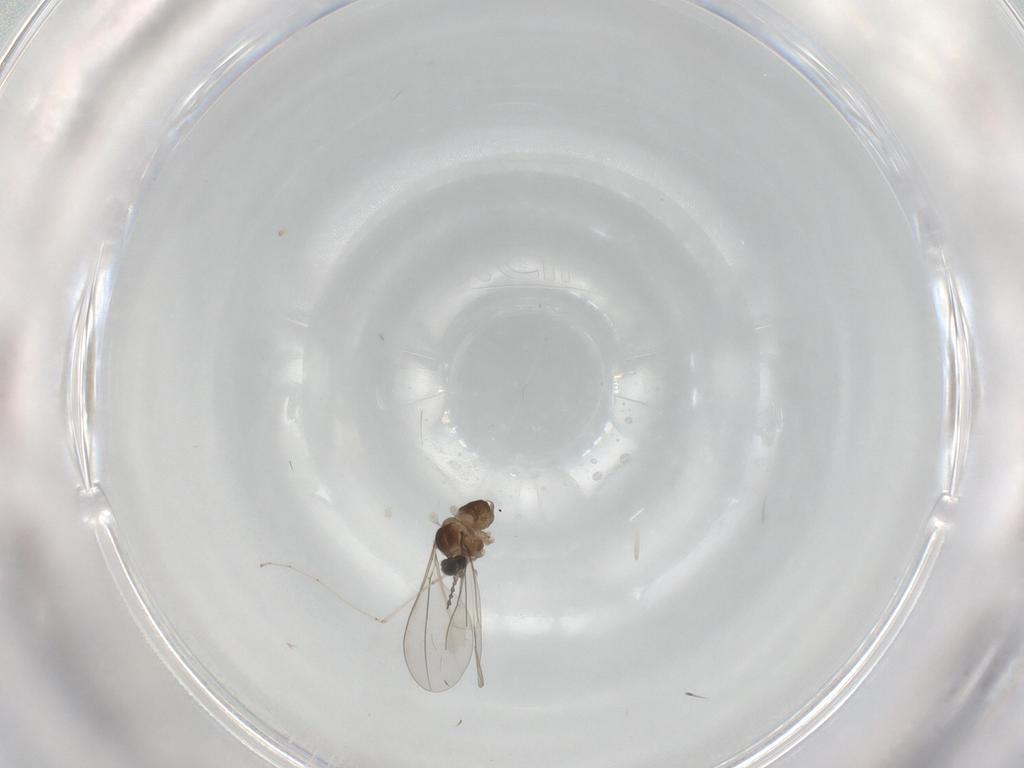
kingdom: Animalia
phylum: Arthropoda
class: Insecta
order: Diptera
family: Cecidomyiidae
